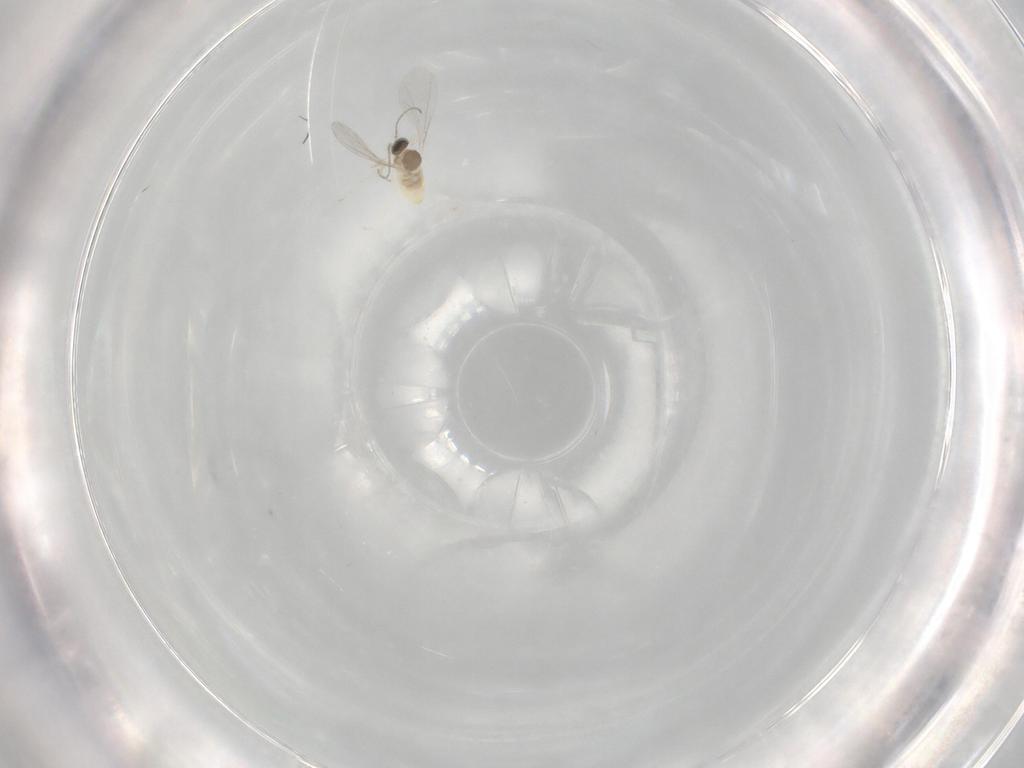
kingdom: Animalia
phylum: Arthropoda
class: Insecta
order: Diptera
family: Cecidomyiidae
